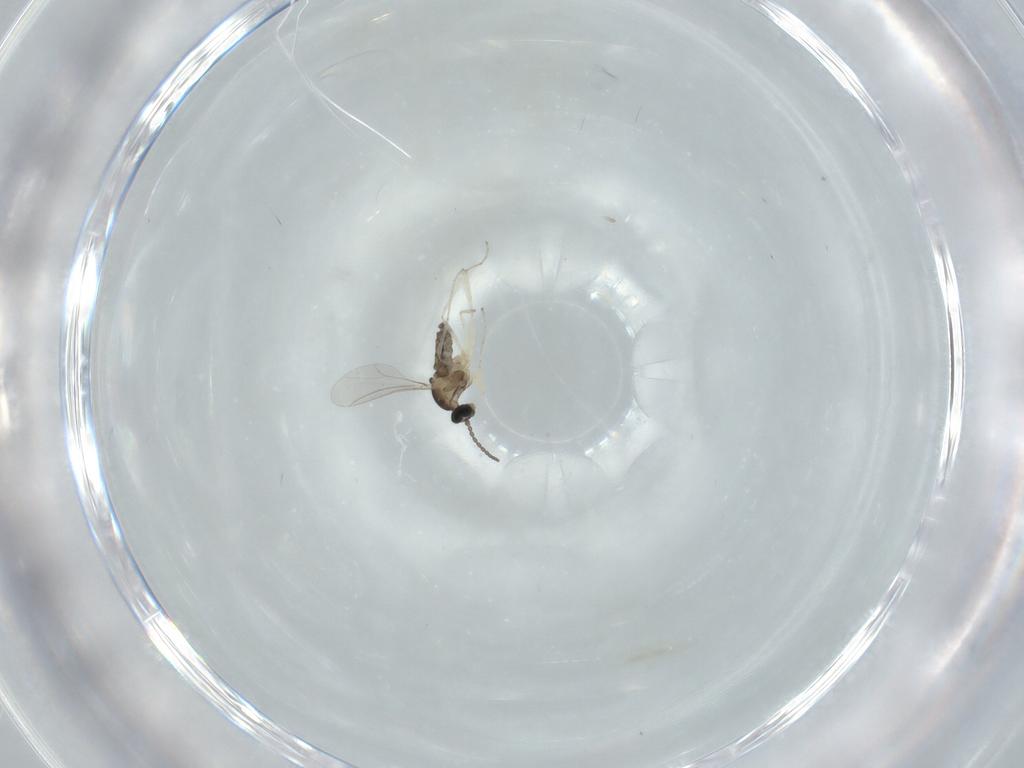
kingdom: Animalia
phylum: Arthropoda
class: Insecta
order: Diptera
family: Cecidomyiidae
